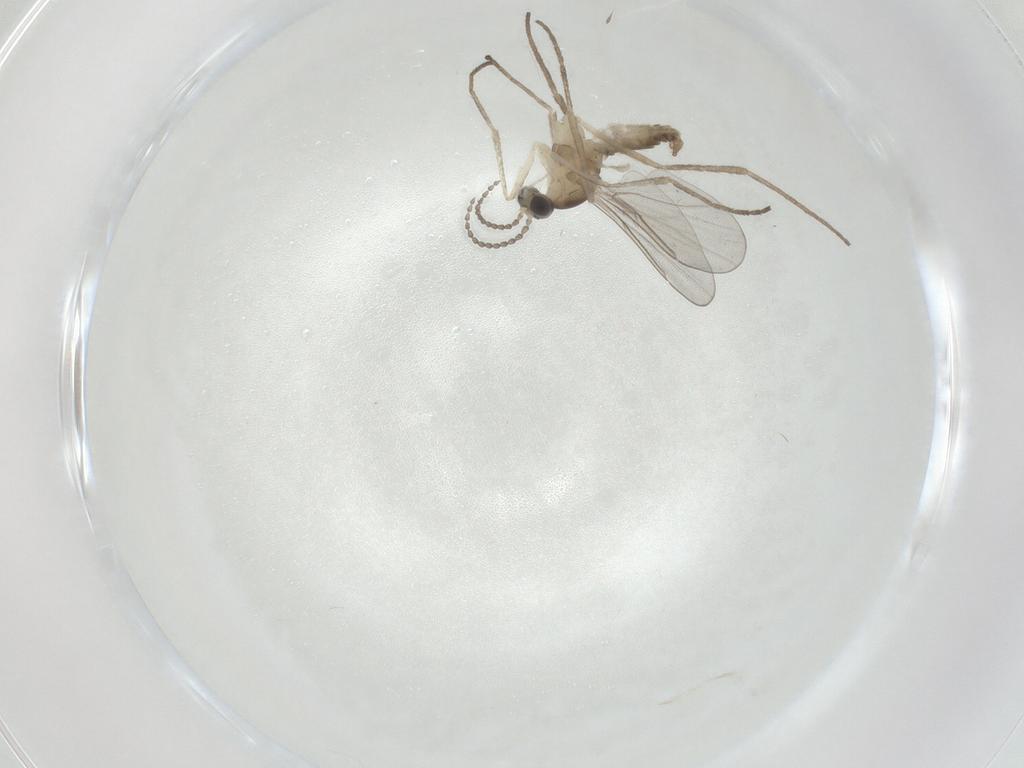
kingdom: Animalia
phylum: Arthropoda
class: Insecta
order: Diptera
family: Cecidomyiidae
